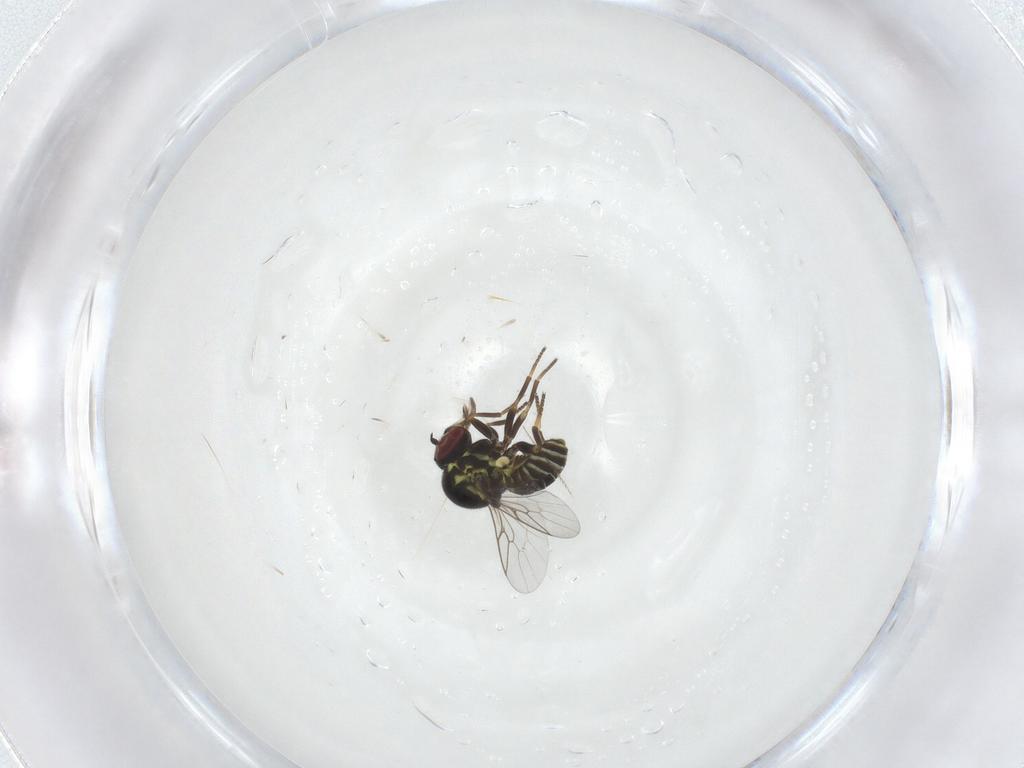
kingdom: Animalia
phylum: Arthropoda
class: Insecta
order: Diptera
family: Mythicomyiidae
